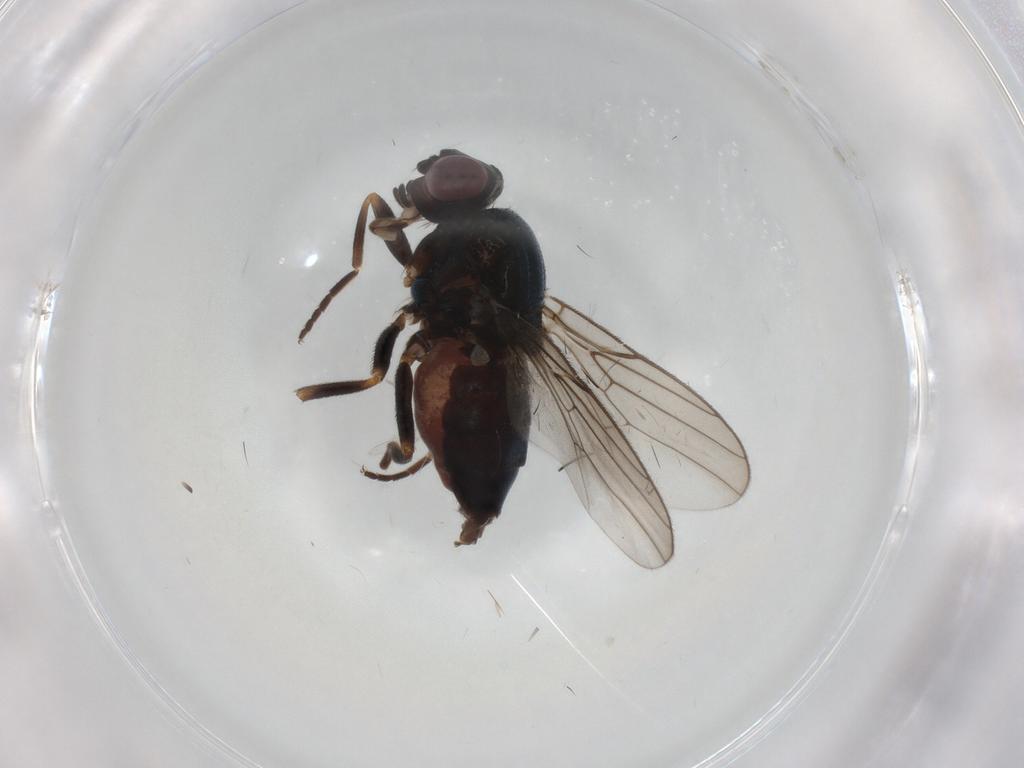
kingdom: Animalia
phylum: Arthropoda
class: Insecta
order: Diptera
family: Chloropidae
